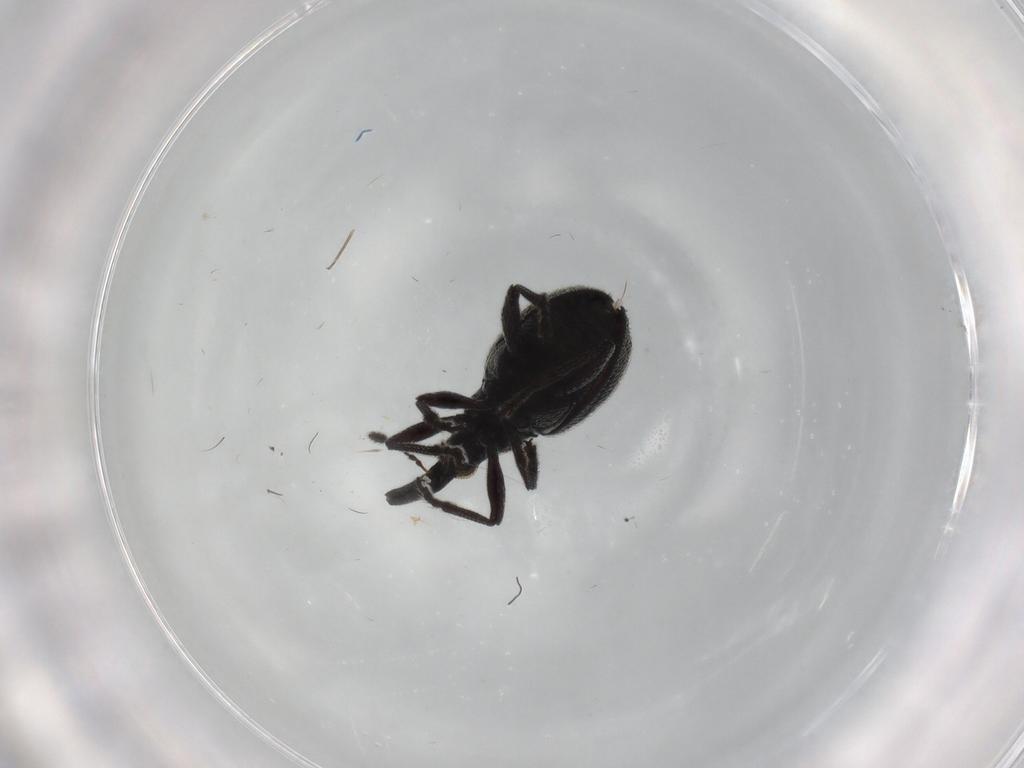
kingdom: Animalia
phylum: Arthropoda
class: Insecta
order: Coleoptera
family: Brentidae
